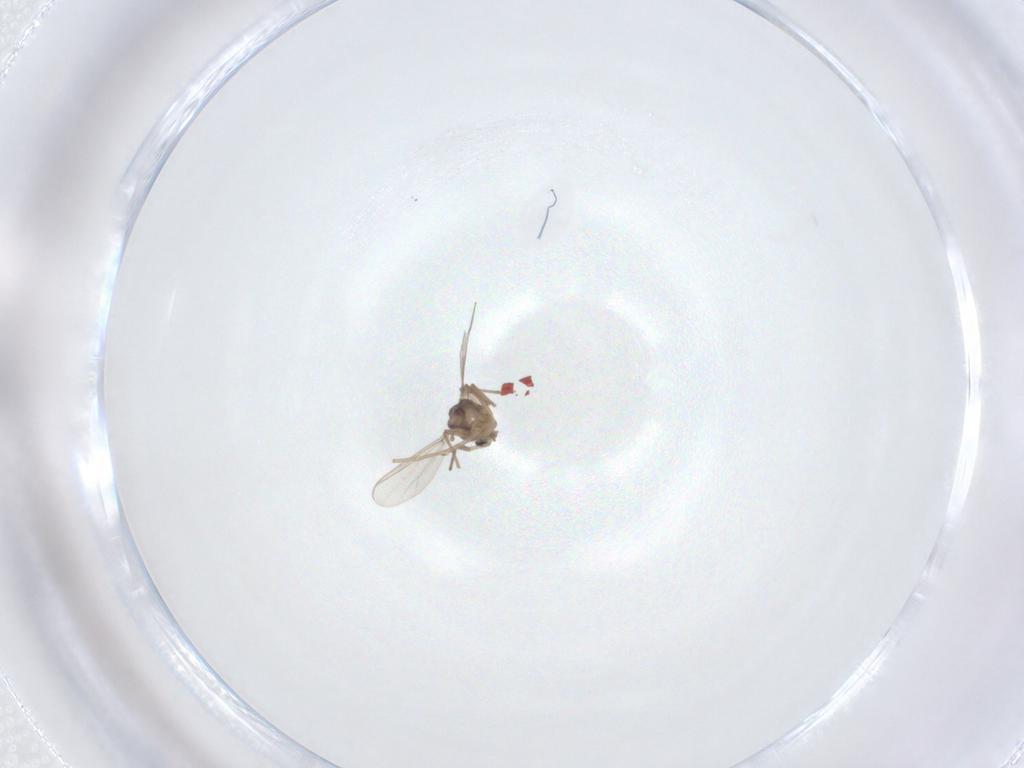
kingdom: Animalia
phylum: Arthropoda
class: Insecta
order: Diptera
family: Chironomidae
